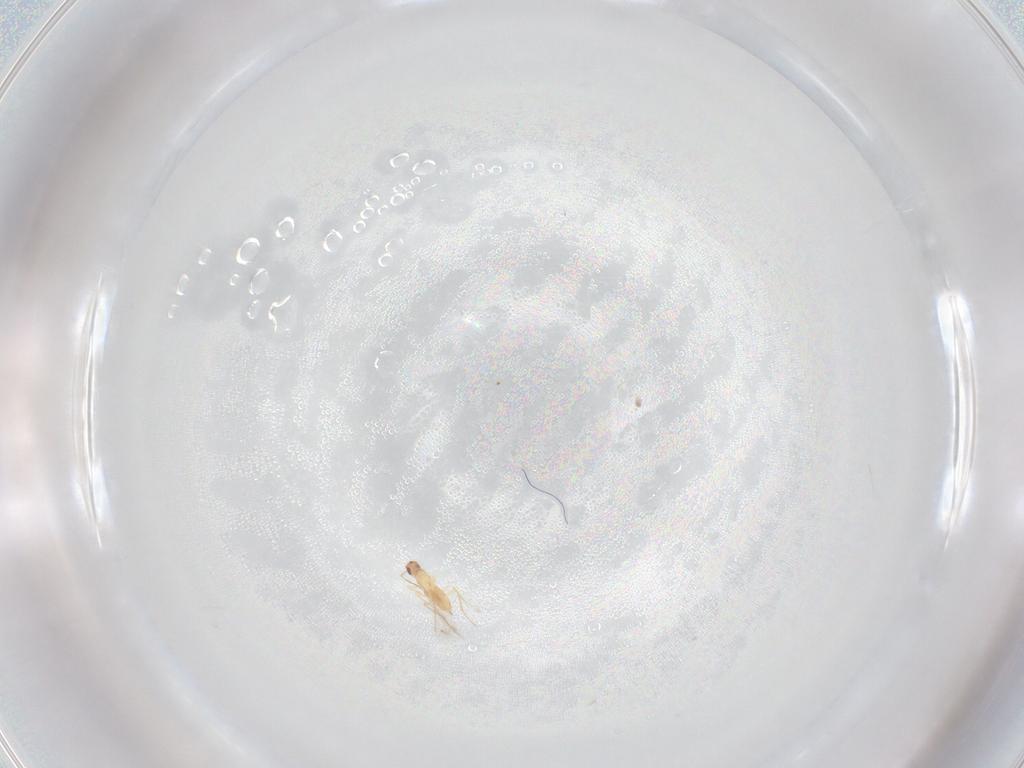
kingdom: Animalia
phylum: Arthropoda
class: Insecta
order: Hymenoptera
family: Mymaridae
